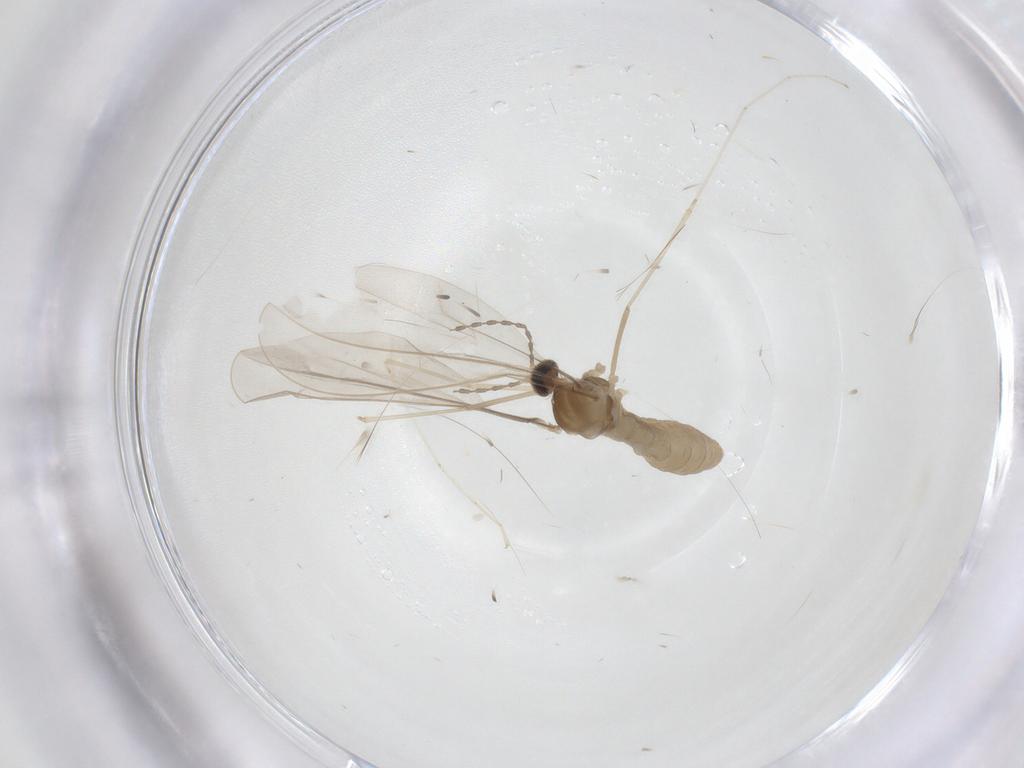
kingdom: Animalia
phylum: Arthropoda
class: Insecta
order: Diptera
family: Cecidomyiidae
